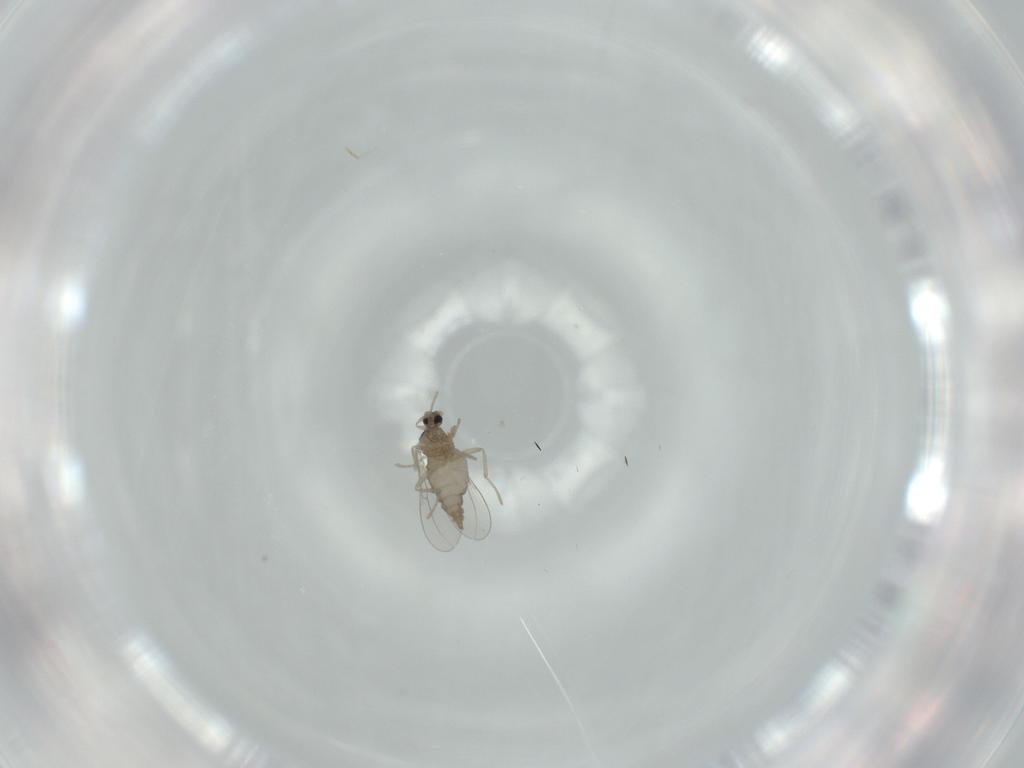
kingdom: Animalia
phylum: Arthropoda
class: Insecta
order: Diptera
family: Cecidomyiidae
